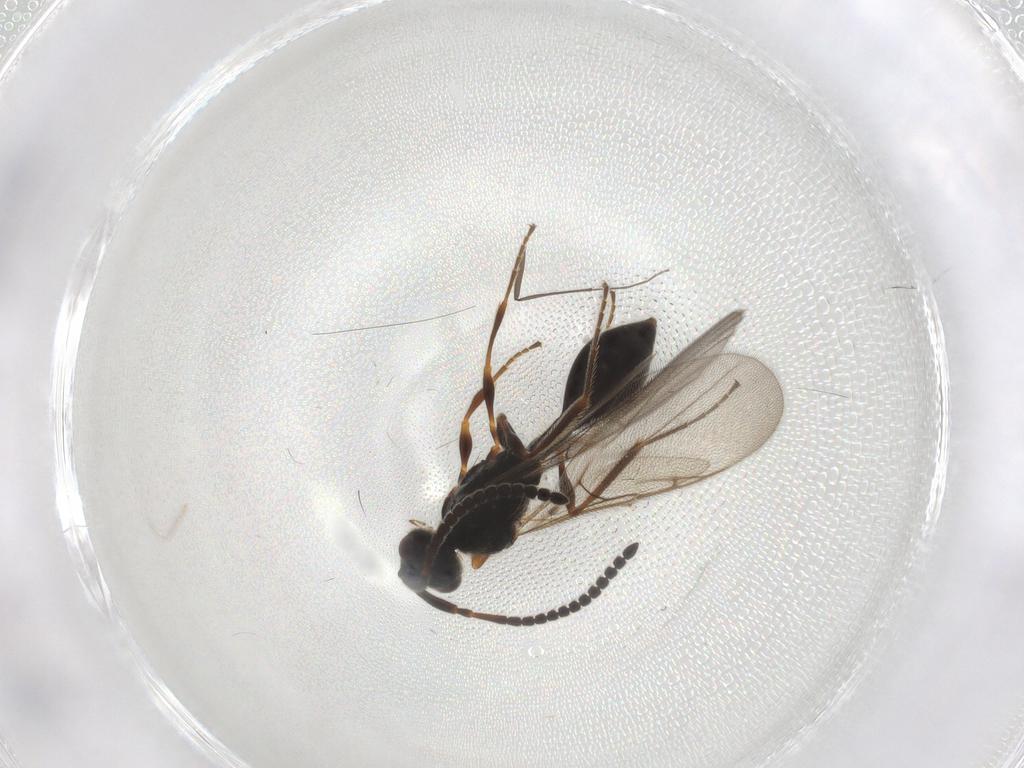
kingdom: Animalia
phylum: Arthropoda
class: Insecta
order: Hymenoptera
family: Diapriidae
